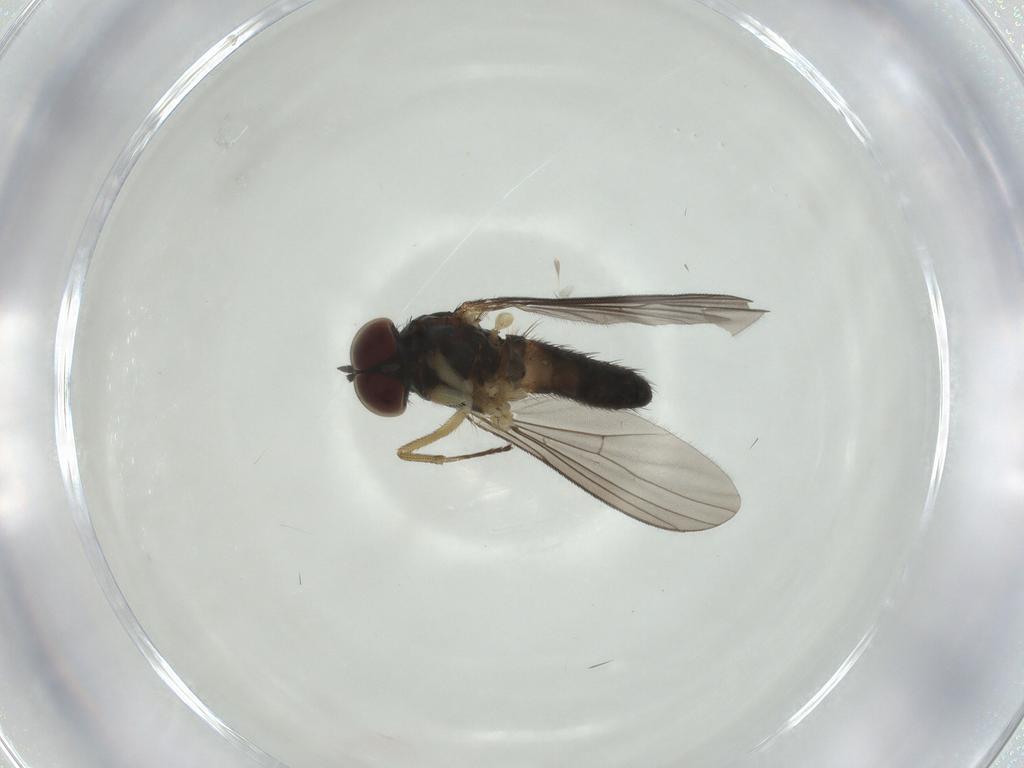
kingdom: Animalia
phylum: Arthropoda
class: Insecta
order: Diptera
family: Dolichopodidae
